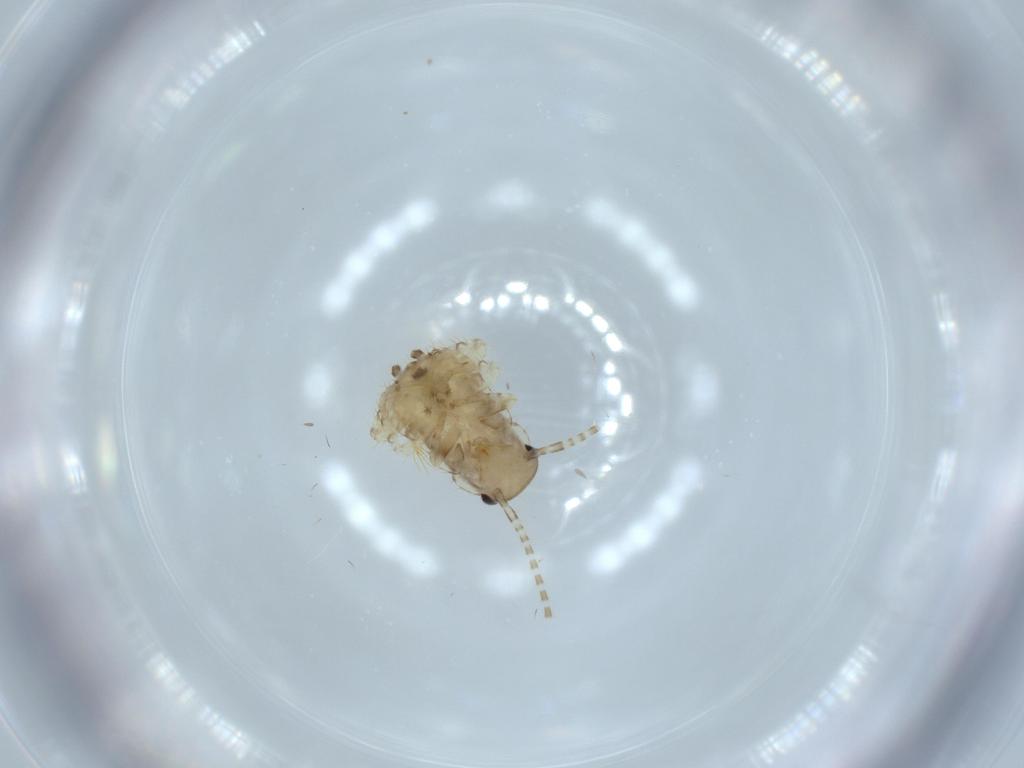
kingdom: Animalia
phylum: Arthropoda
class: Insecta
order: Blattodea
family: Ectobiidae
